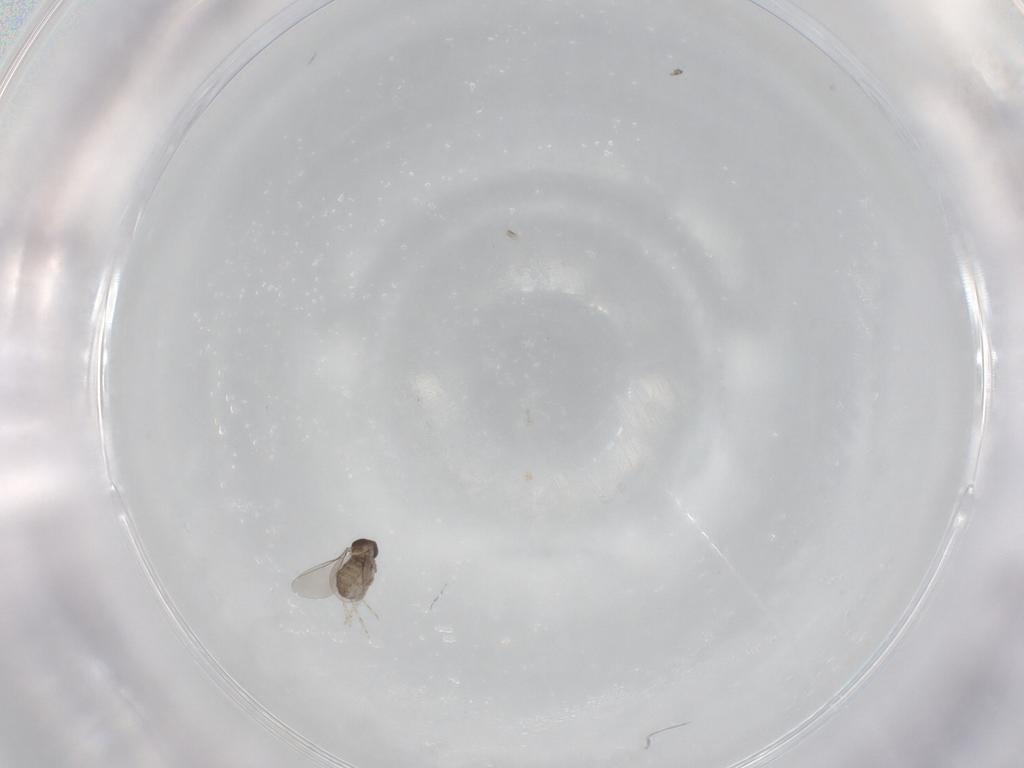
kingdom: Animalia
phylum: Arthropoda
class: Insecta
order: Diptera
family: Cecidomyiidae
